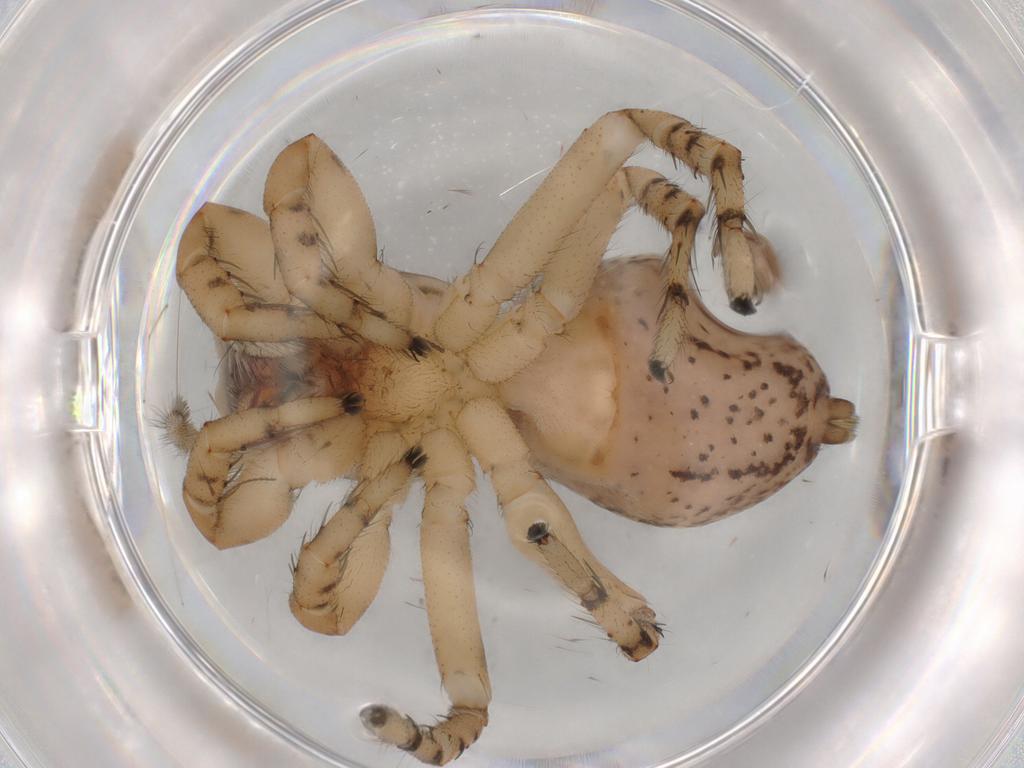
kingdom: Animalia
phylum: Arthropoda
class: Arachnida
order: Araneae
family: Salticidae
